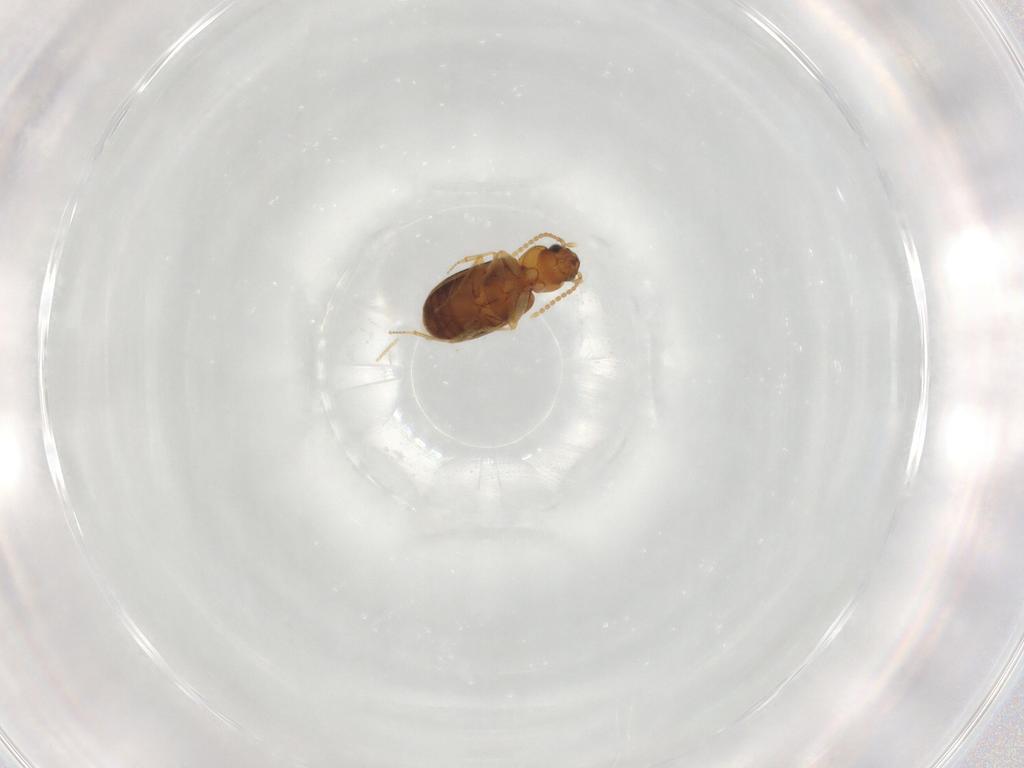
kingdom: Animalia
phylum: Arthropoda
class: Insecta
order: Coleoptera
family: Carabidae
